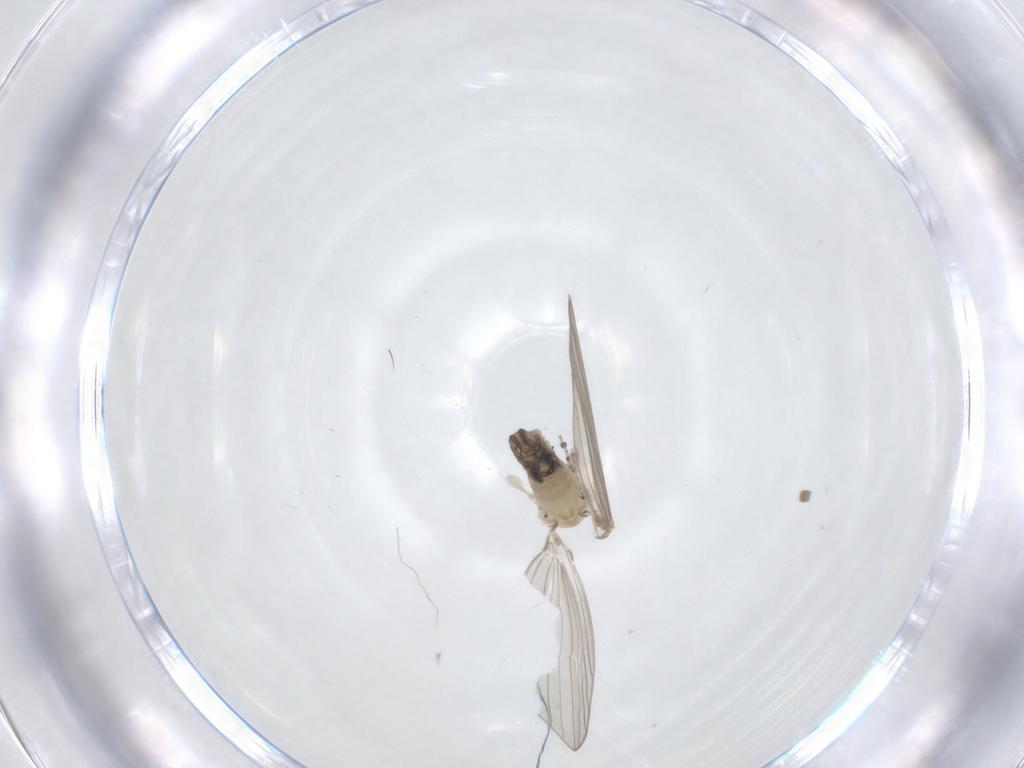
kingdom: Animalia
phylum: Arthropoda
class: Insecta
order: Diptera
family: Psychodidae
